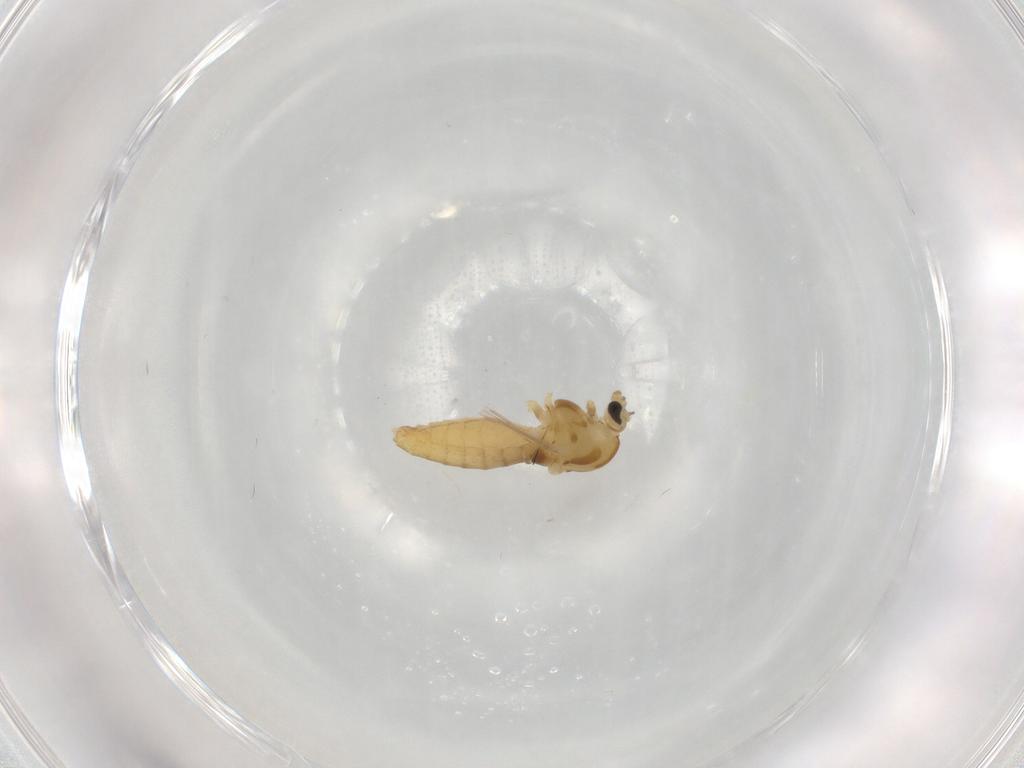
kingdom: Animalia
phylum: Arthropoda
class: Insecta
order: Diptera
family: Chironomidae
